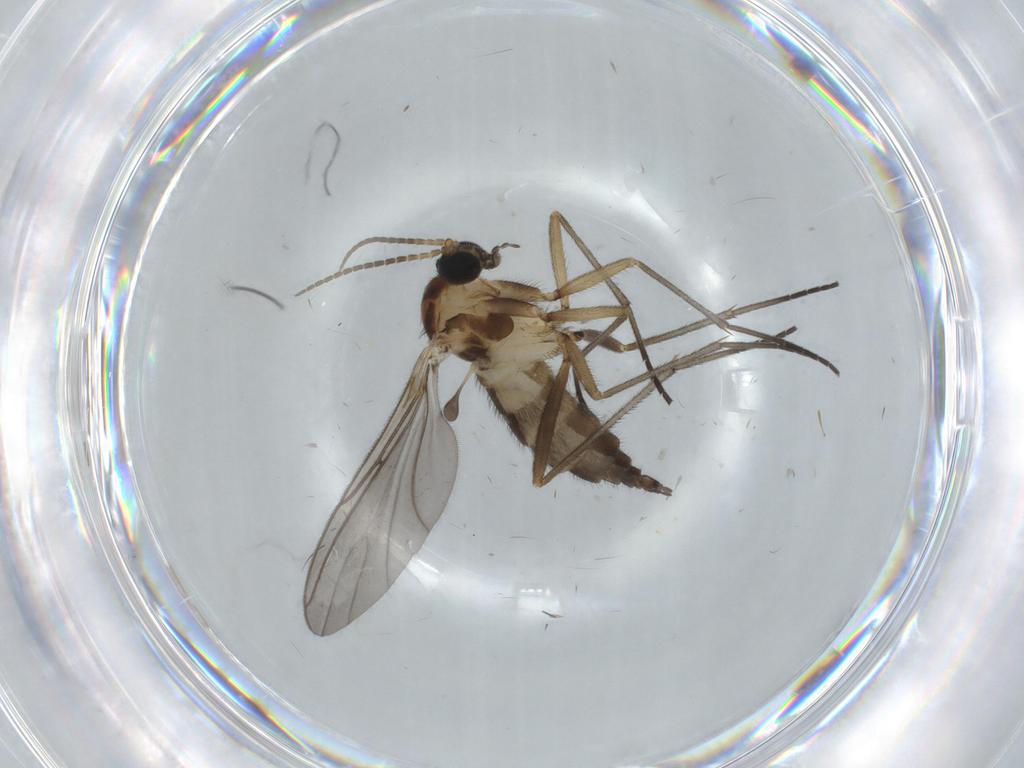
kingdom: Animalia
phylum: Arthropoda
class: Insecta
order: Diptera
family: Sciaridae
